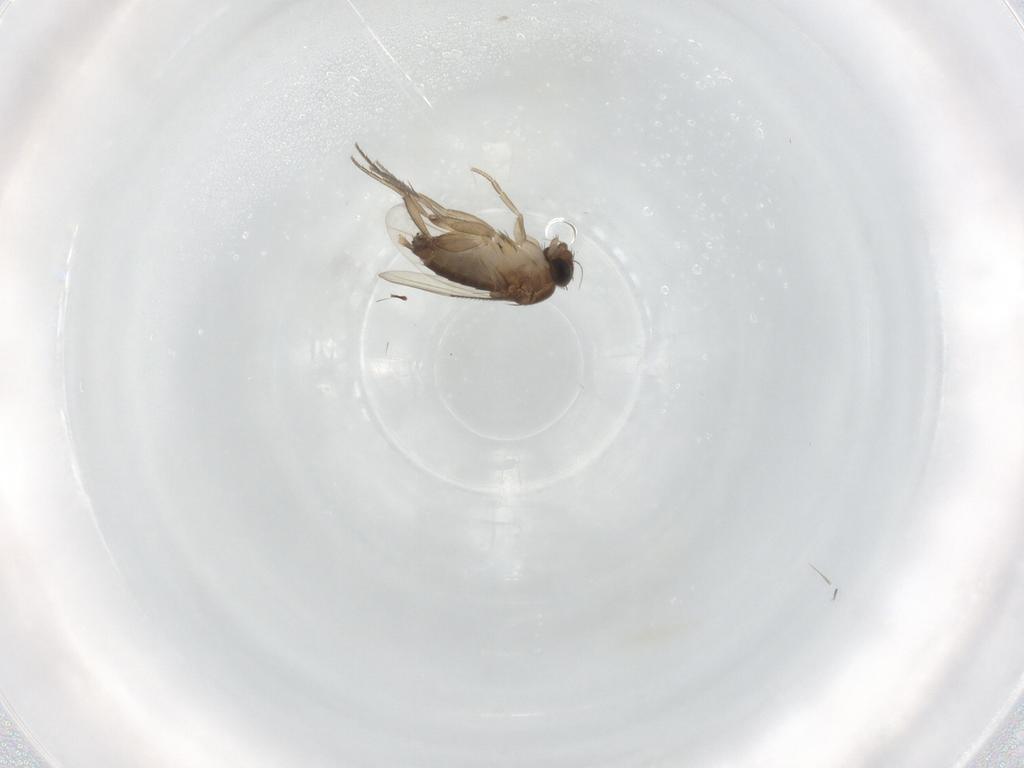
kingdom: Animalia
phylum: Arthropoda
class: Insecta
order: Diptera
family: Phoridae
